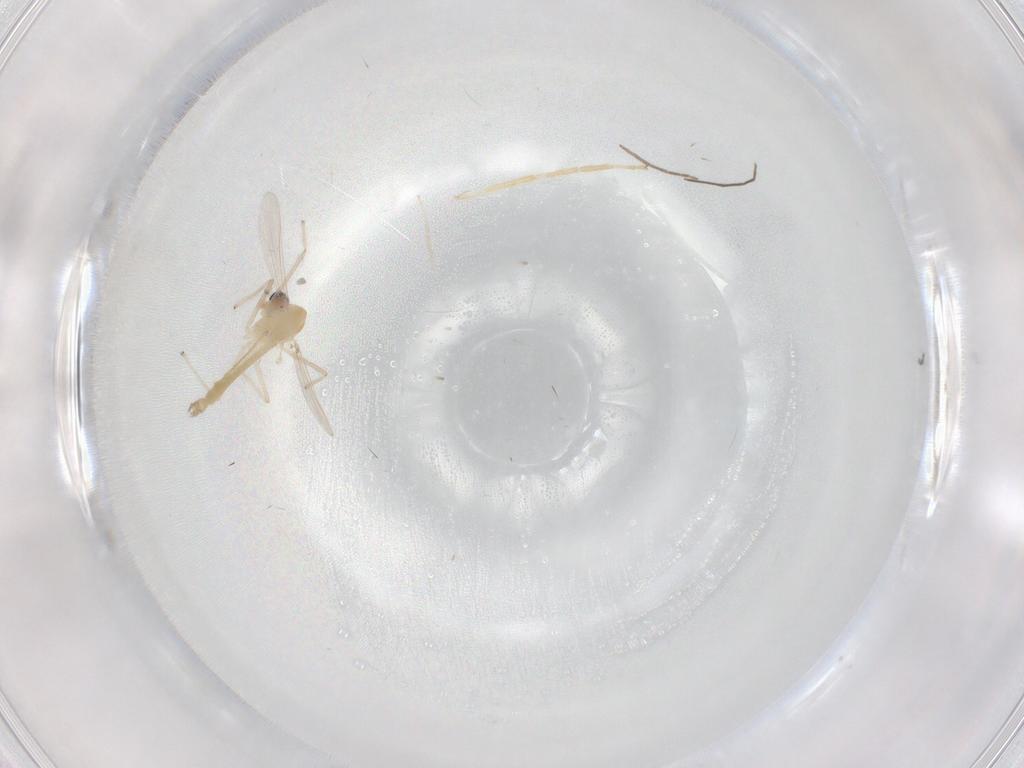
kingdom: Animalia
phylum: Arthropoda
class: Insecta
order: Diptera
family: Chironomidae
